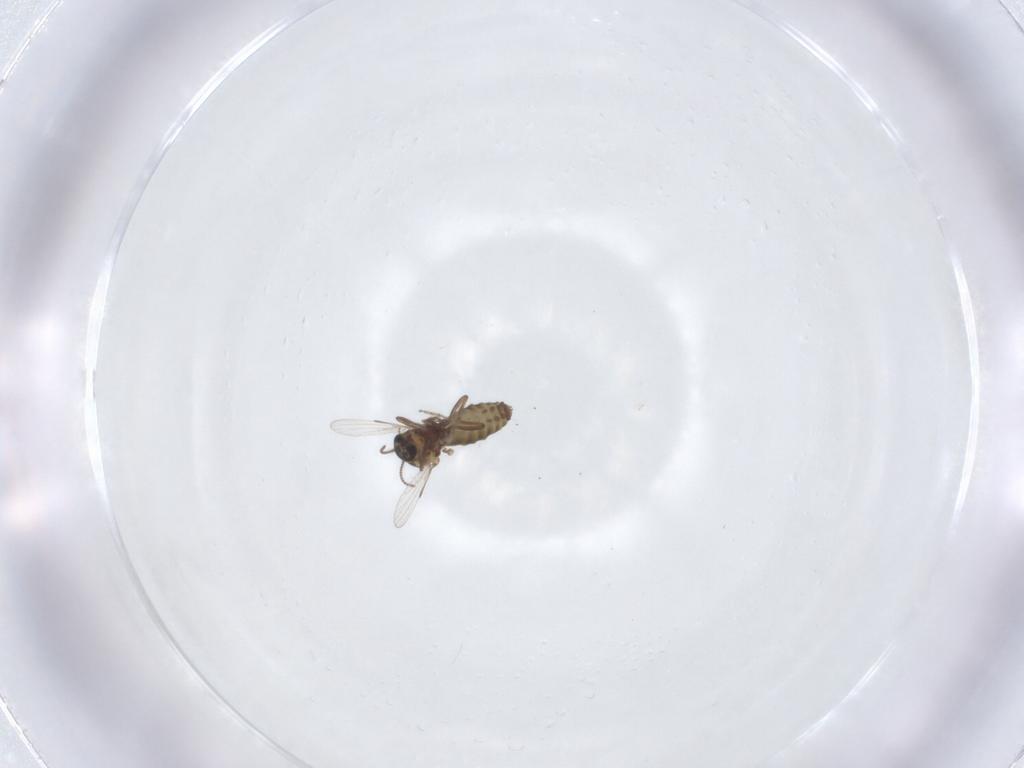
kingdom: Animalia
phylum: Arthropoda
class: Insecta
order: Diptera
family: Ceratopogonidae
